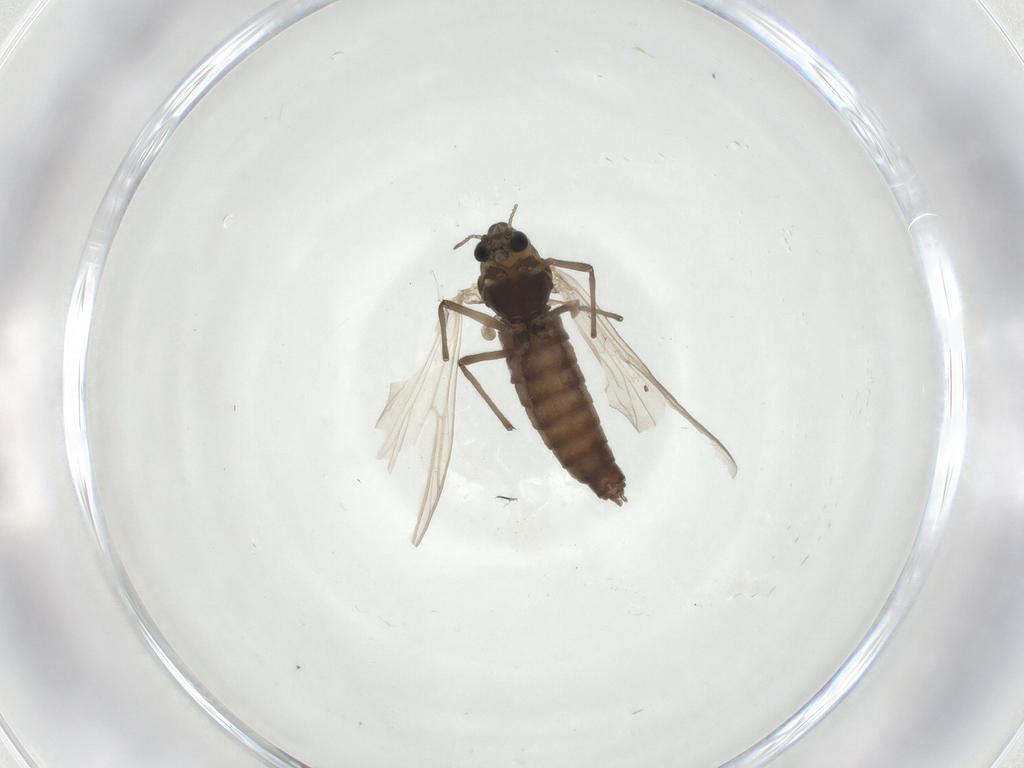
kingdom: Animalia
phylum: Arthropoda
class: Insecta
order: Diptera
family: Chironomidae
